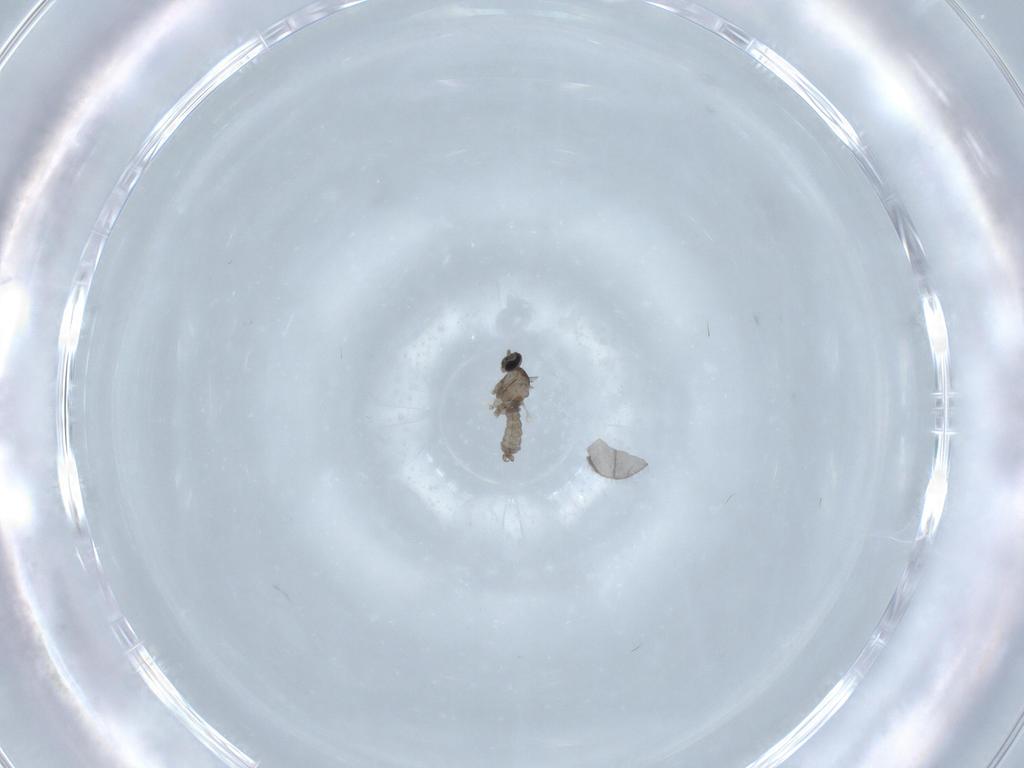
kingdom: Animalia
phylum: Arthropoda
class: Insecta
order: Diptera
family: Sciaridae
